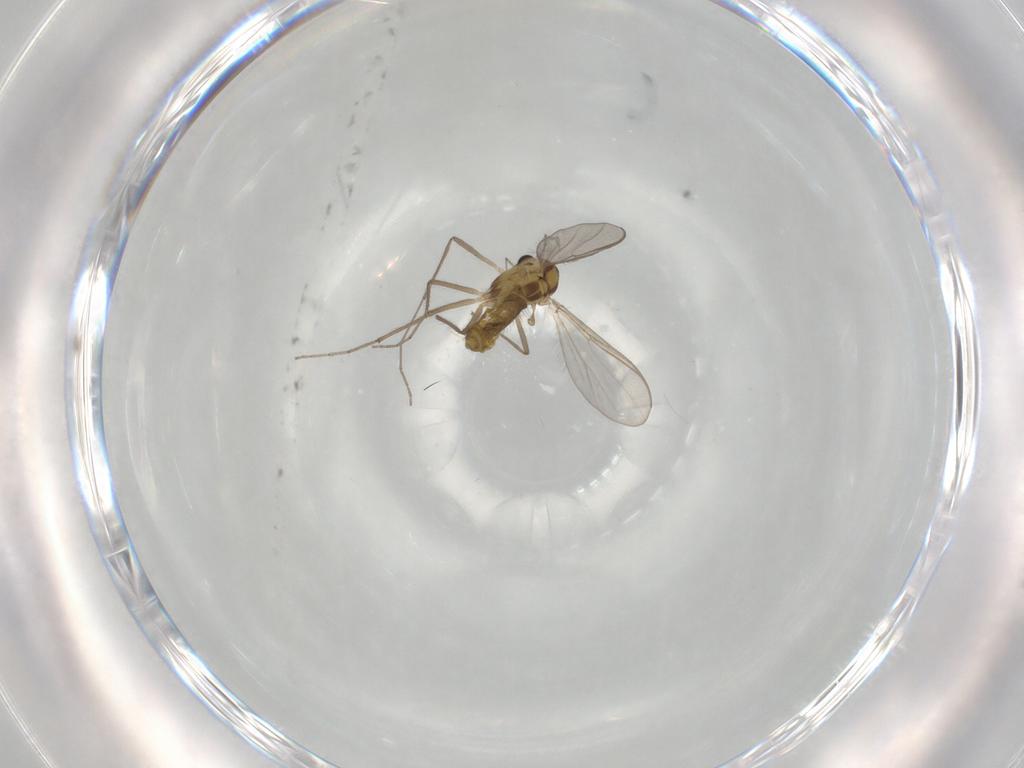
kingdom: Animalia
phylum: Arthropoda
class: Insecta
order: Diptera
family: Chironomidae
